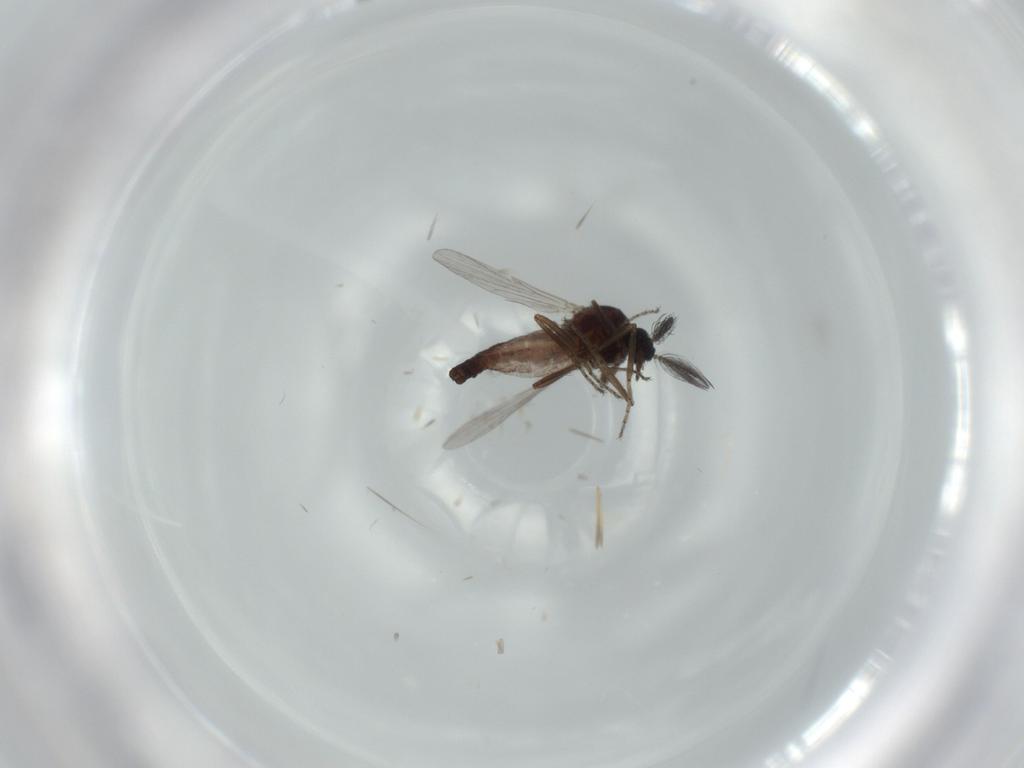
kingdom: Animalia
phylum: Arthropoda
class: Insecta
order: Diptera
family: Ceratopogonidae
